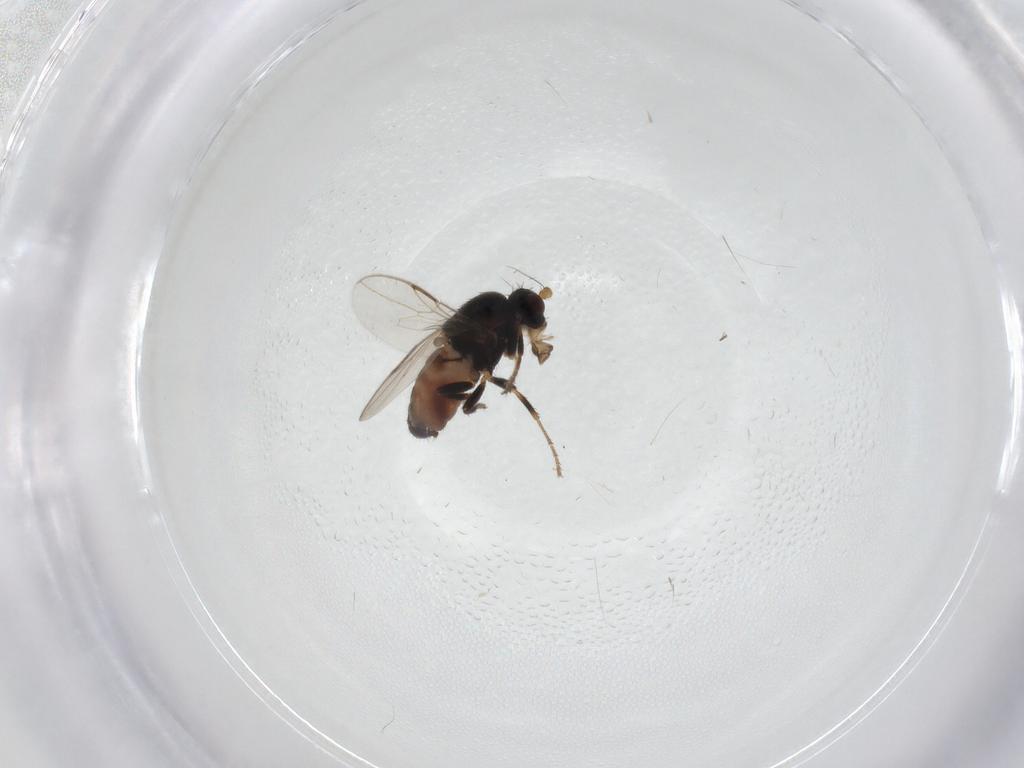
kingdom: Animalia
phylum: Arthropoda
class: Insecta
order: Diptera
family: Sphaeroceridae
